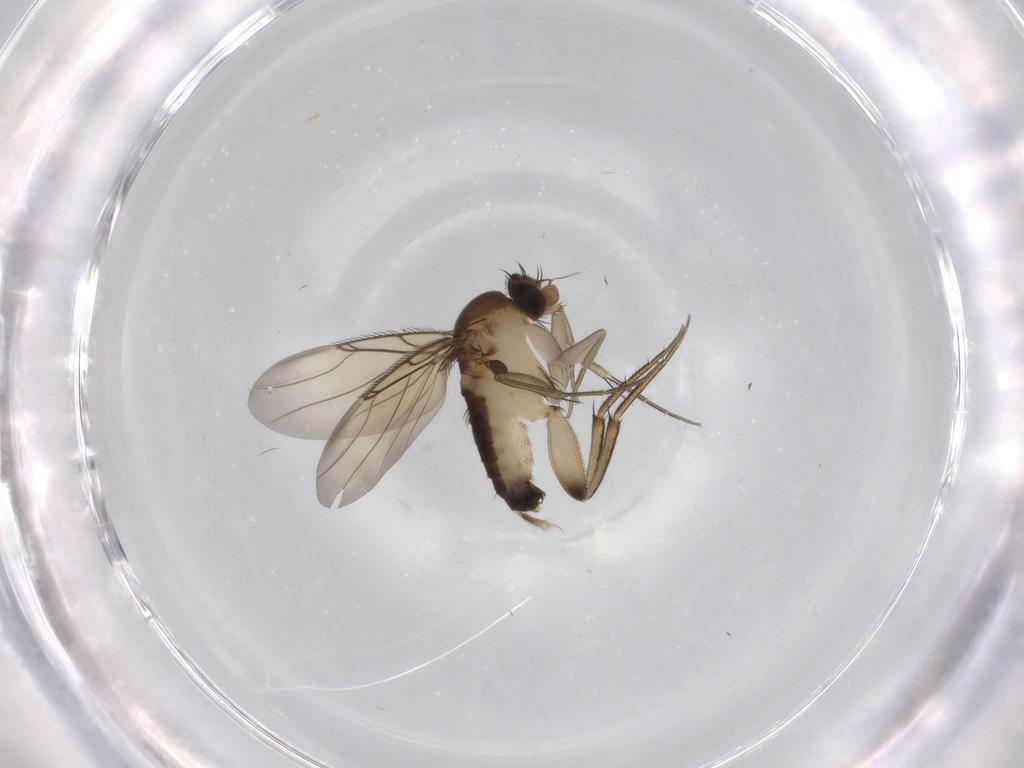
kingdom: Animalia
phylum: Arthropoda
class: Insecta
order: Diptera
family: Phoridae
